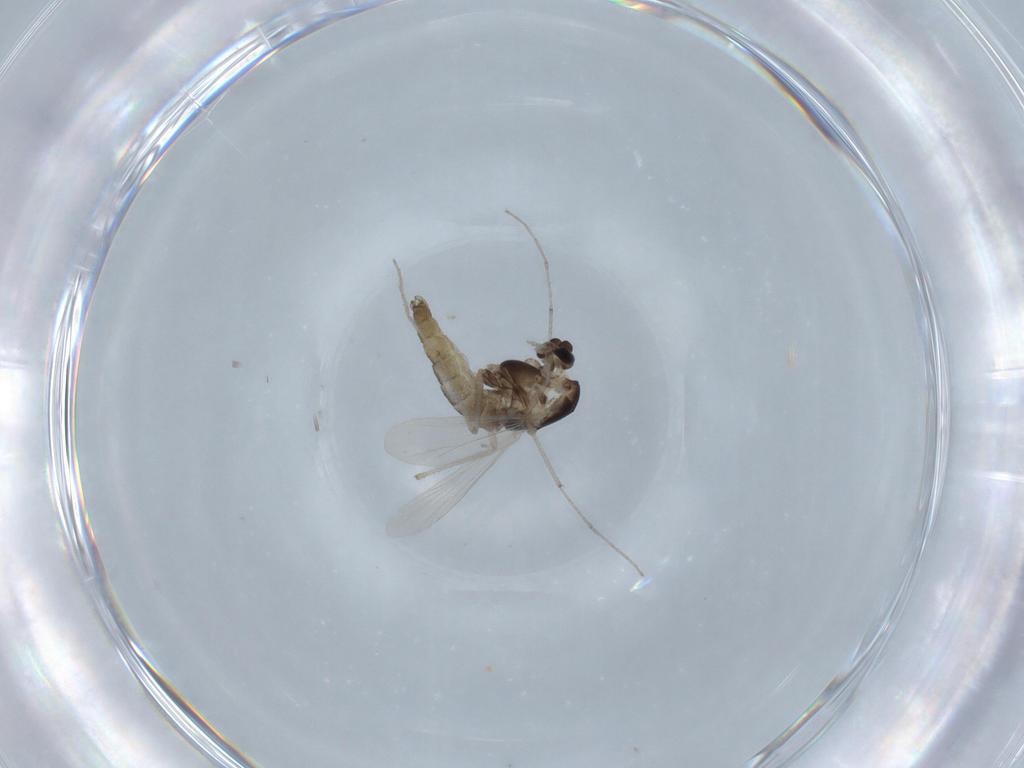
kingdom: Animalia
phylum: Arthropoda
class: Insecta
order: Diptera
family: Chironomidae
